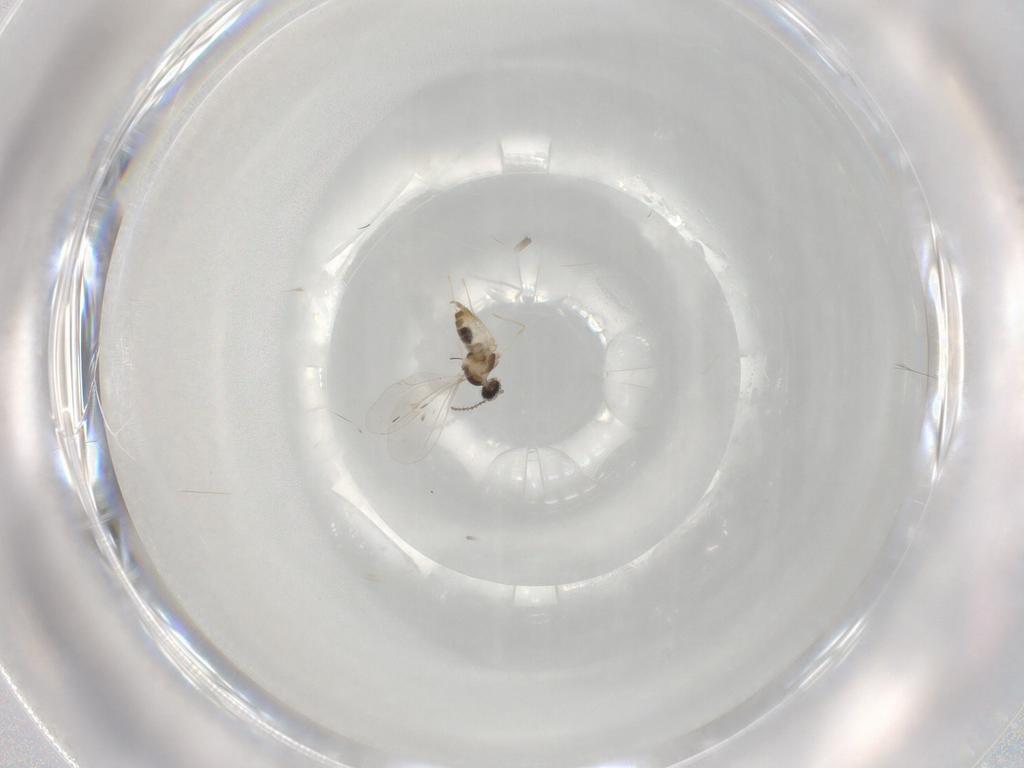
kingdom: Animalia
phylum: Arthropoda
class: Insecta
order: Diptera
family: Cecidomyiidae
